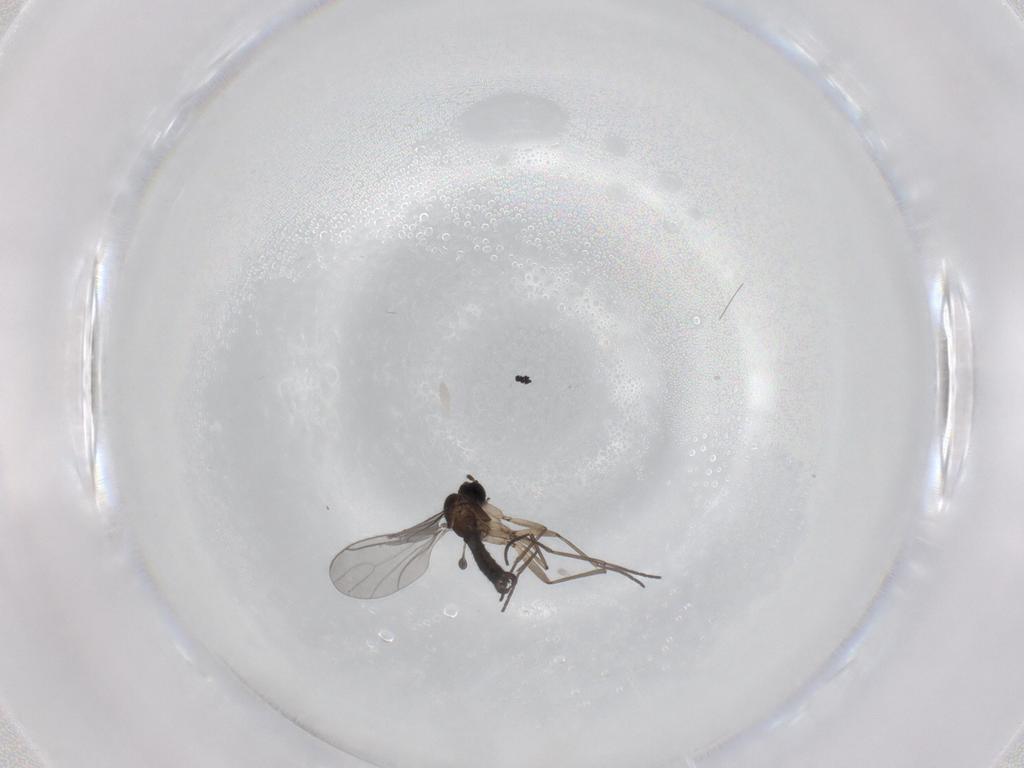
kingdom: Animalia
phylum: Arthropoda
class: Insecta
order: Diptera
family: Sciaridae
